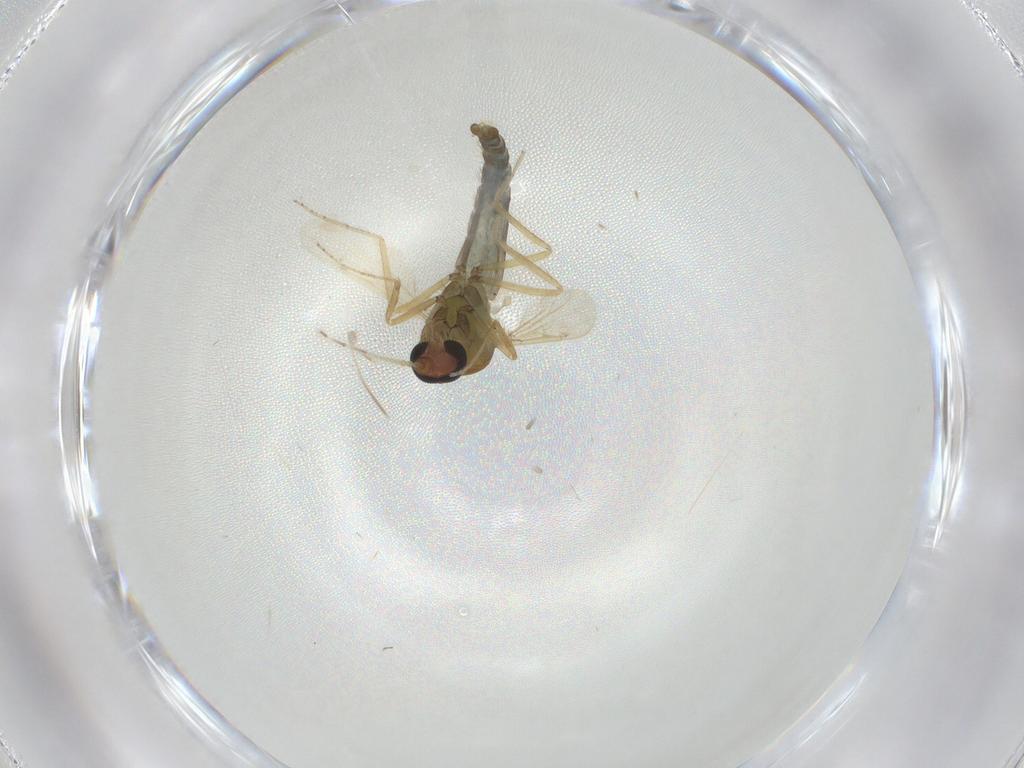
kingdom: Animalia
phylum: Arthropoda
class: Insecta
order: Diptera
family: Ceratopogonidae
